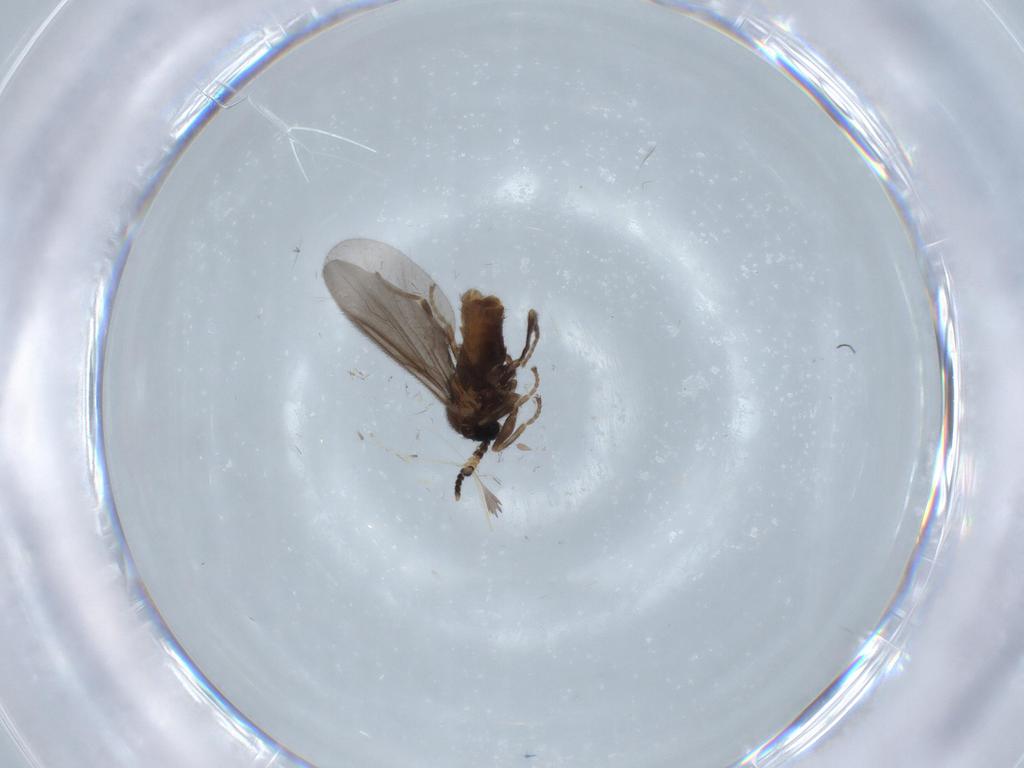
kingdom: Animalia
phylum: Arthropoda
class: Insecta
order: Diptera
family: Scatopsidae
